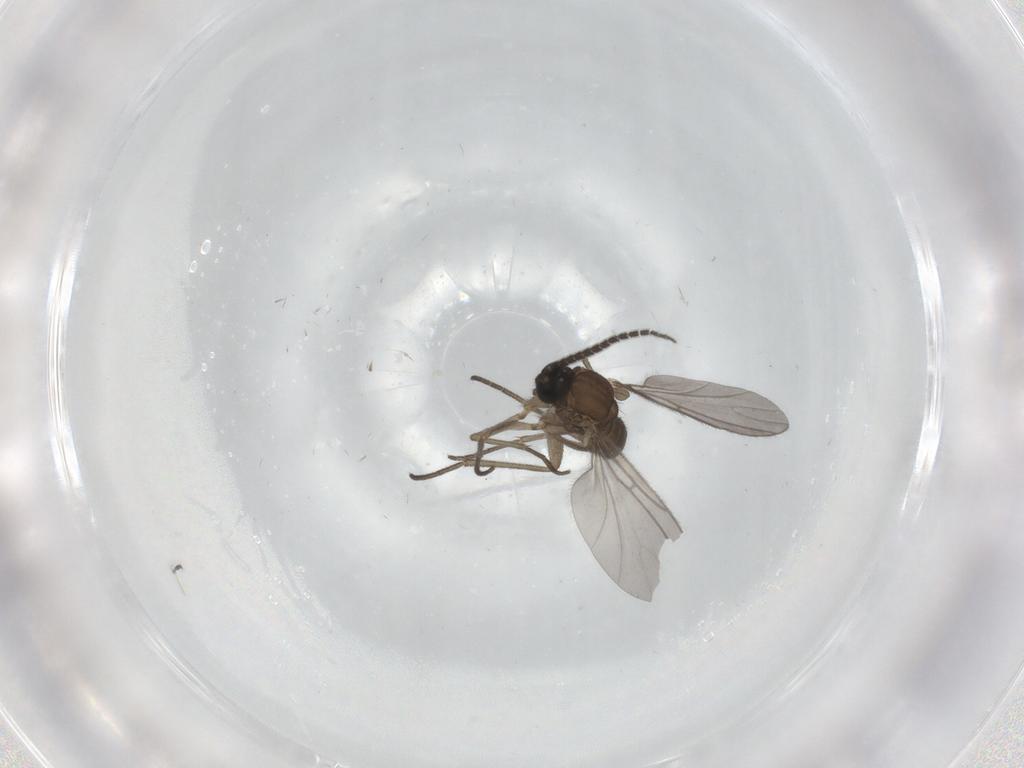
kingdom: Animalia
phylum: Arthropoda
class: Insecta
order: Diptera
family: Sciaridae
